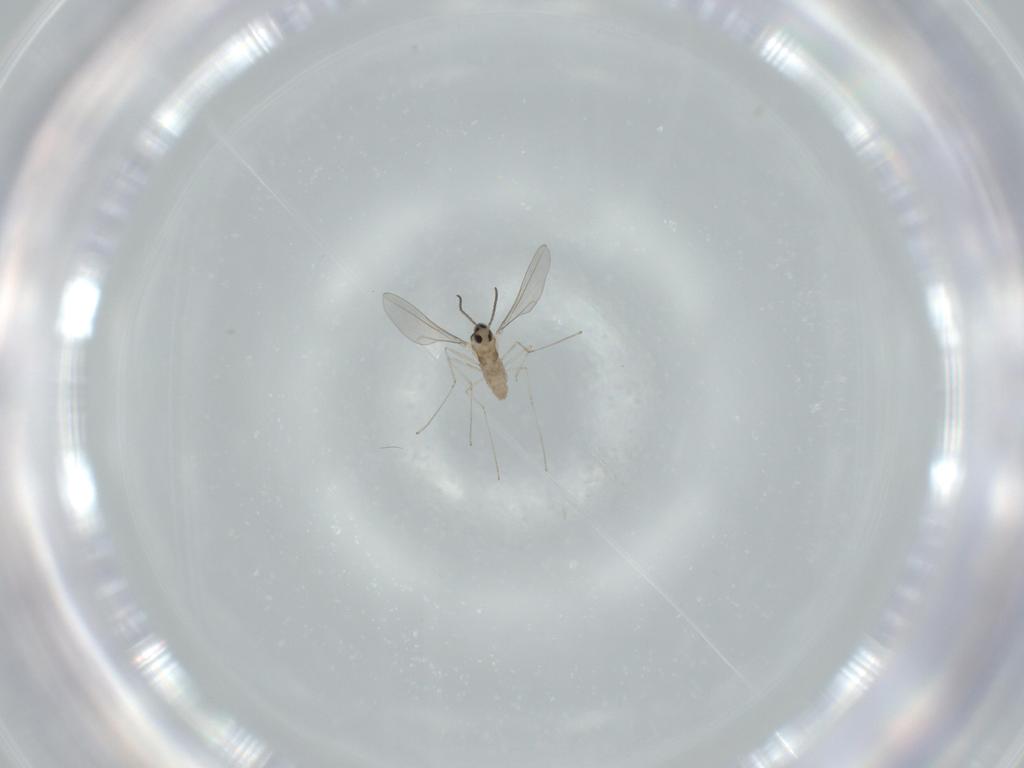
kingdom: Animalia
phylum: Arthropoda
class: Insecta
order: Diptera
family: Cecidomyiidae
